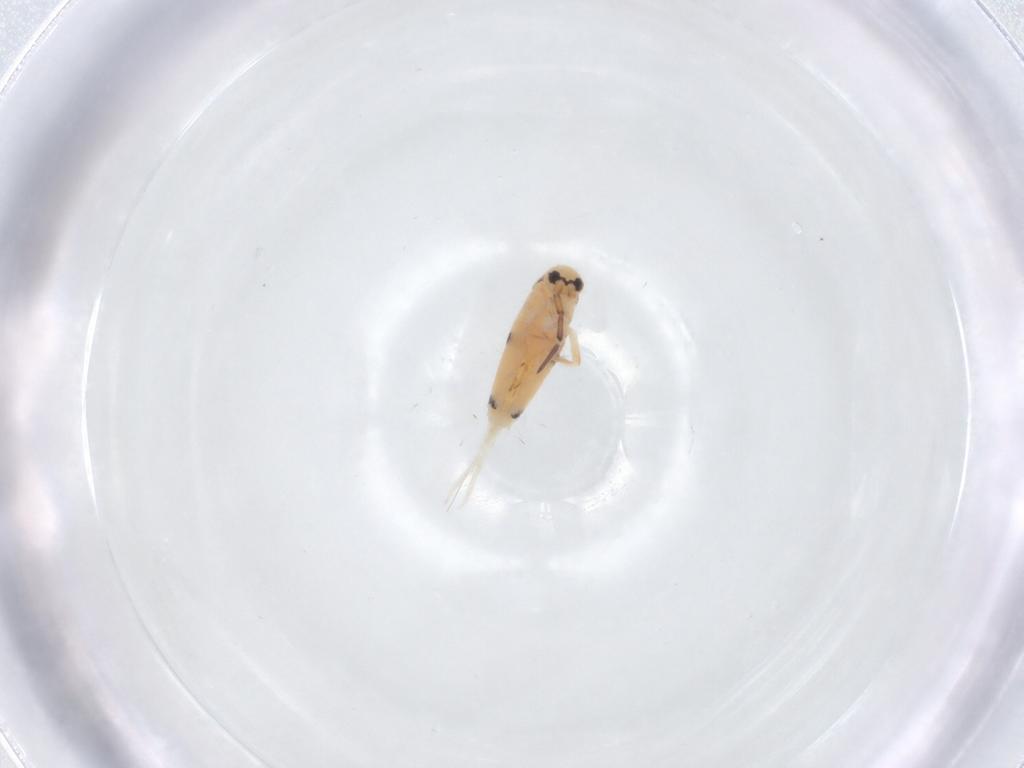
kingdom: Animalia
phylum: Arthropoda
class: Collembola
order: Entomobryomorpha
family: Entomobryidae
